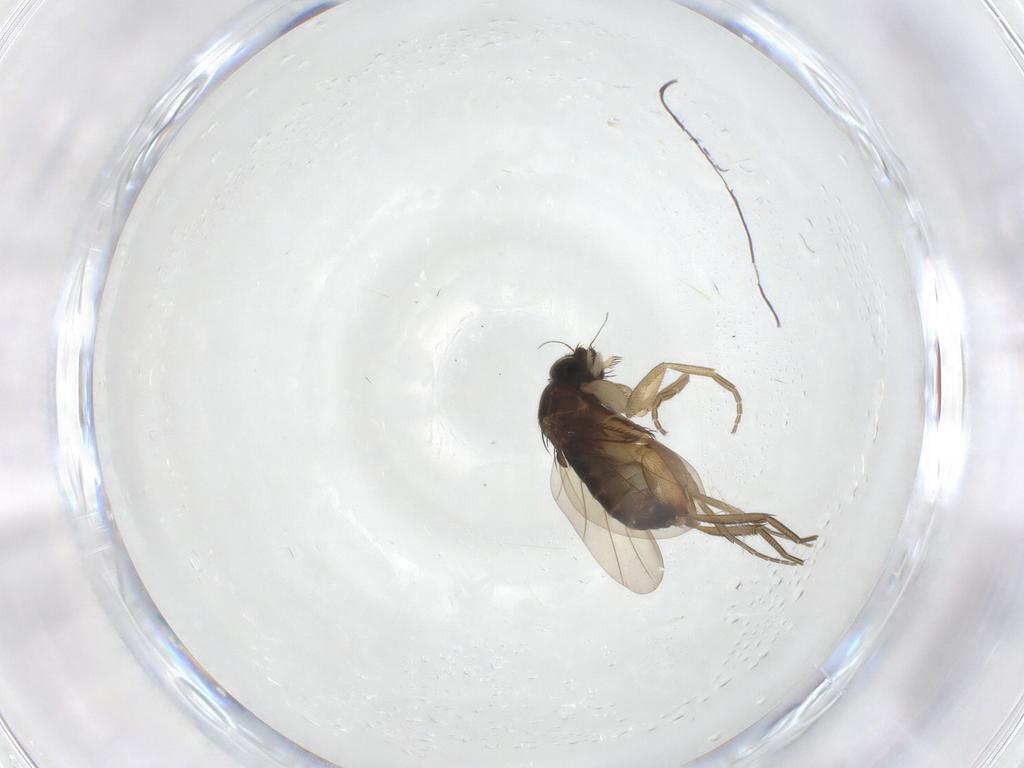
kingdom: Animalia
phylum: Arthropoda
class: Insecta
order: Diptera
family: Phoridae
